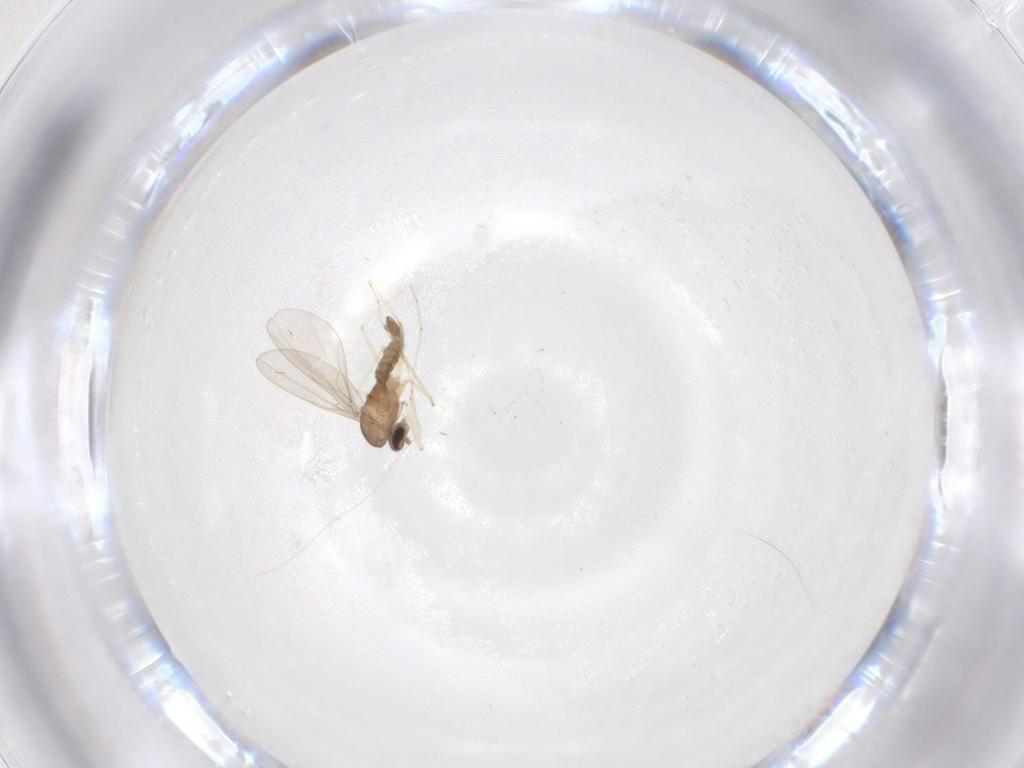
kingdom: Animalia
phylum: Arthropoda
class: Insecta
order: Diptera
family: Cecidomyiidae
